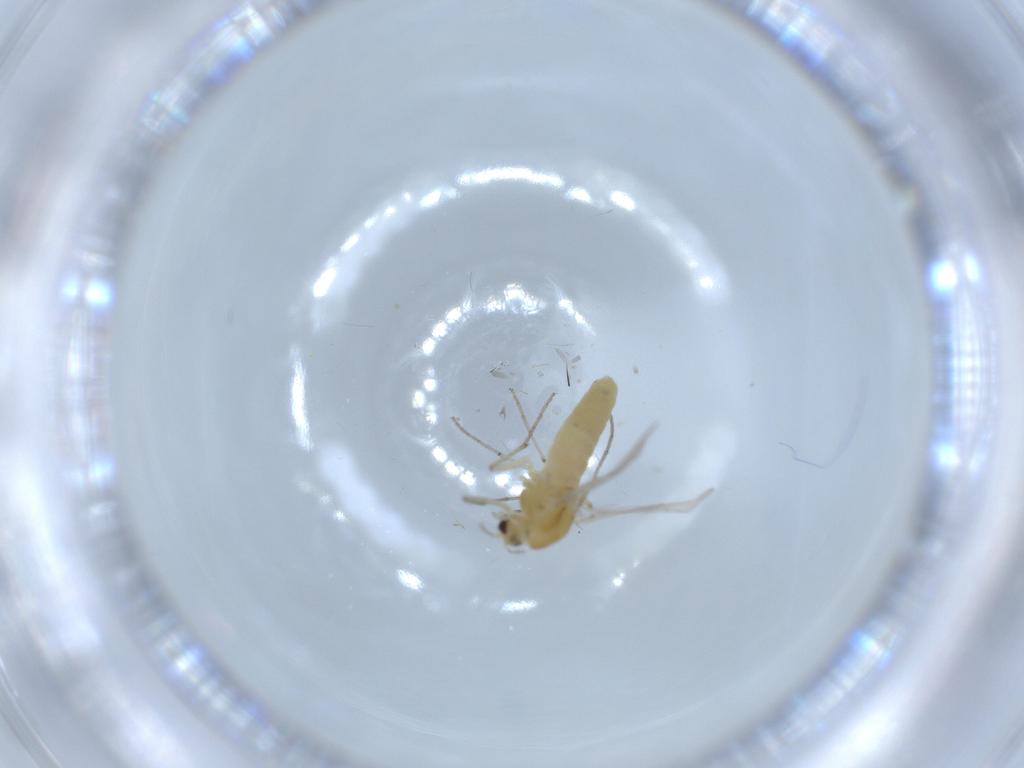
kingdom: Animalia
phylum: Arthropoda
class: Insecta
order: Diptera
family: Chironomidae
